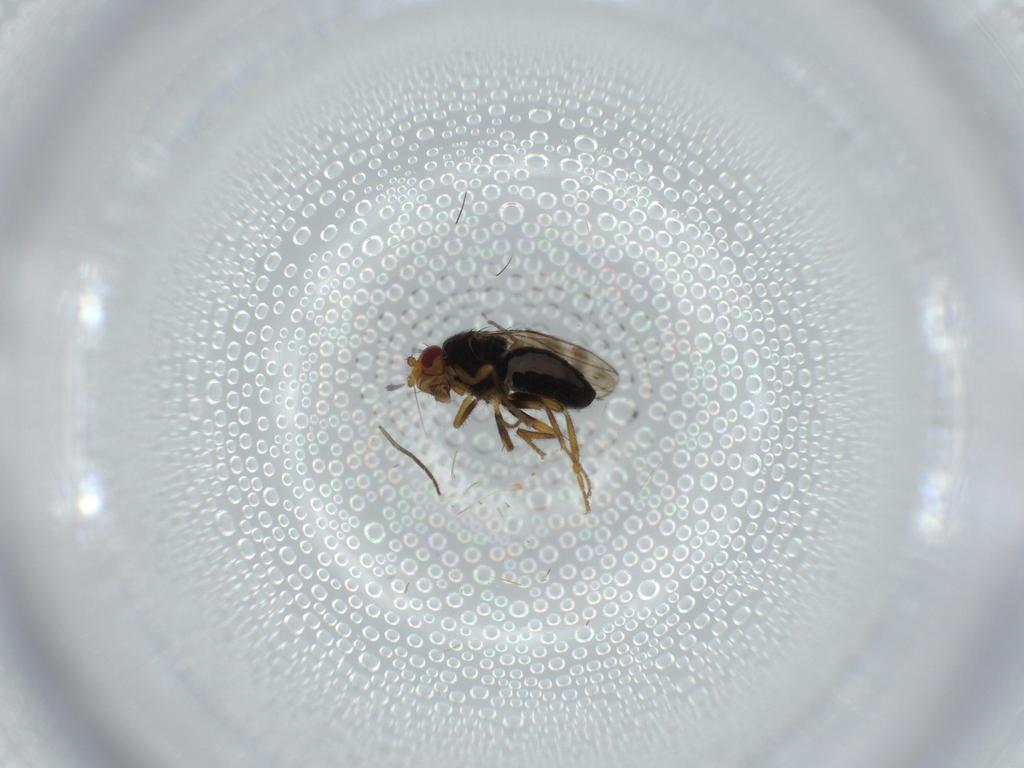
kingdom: Animalia
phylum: Arthropoda
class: Insecta
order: Diptera
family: Sphaeroceridae
